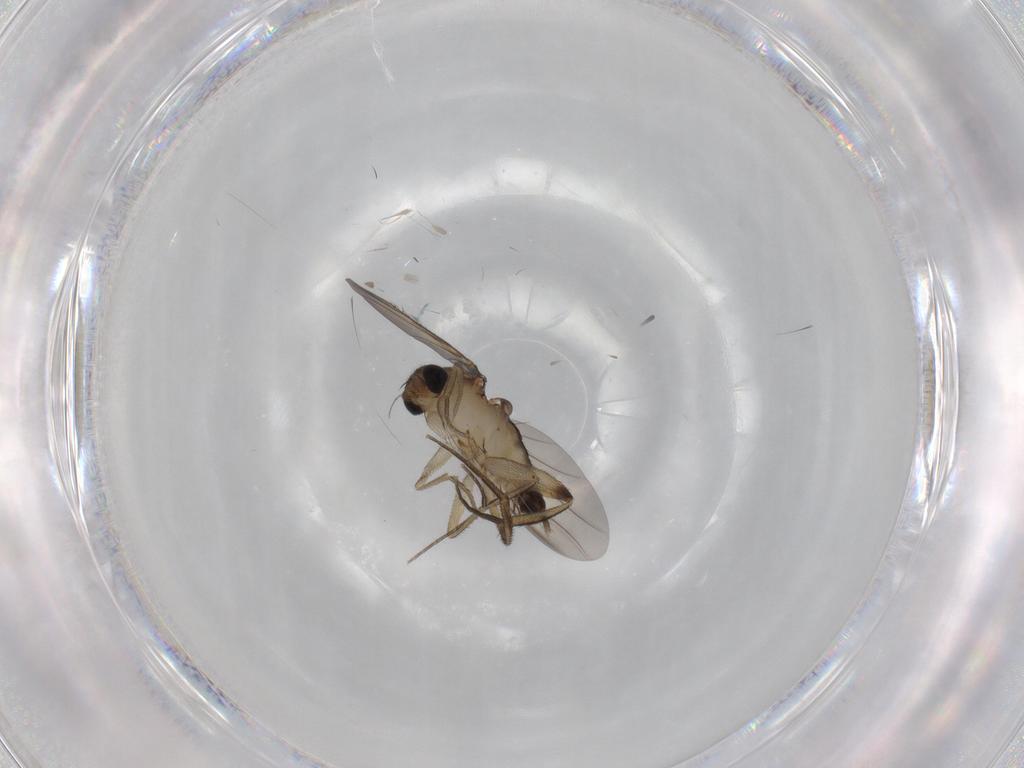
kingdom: Animalia
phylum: Arthropoda
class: Insecta
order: Diptera
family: Phoridae
